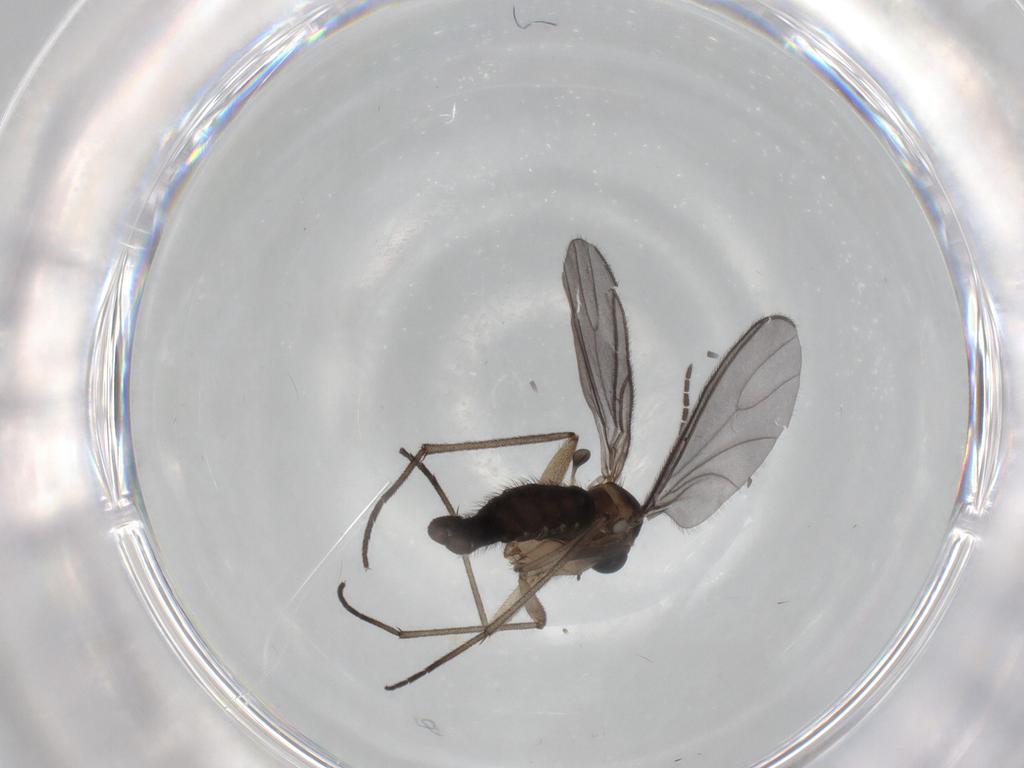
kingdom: Animalia
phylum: Arthropoda
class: Insecta
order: Diptera
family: Sciaridae
